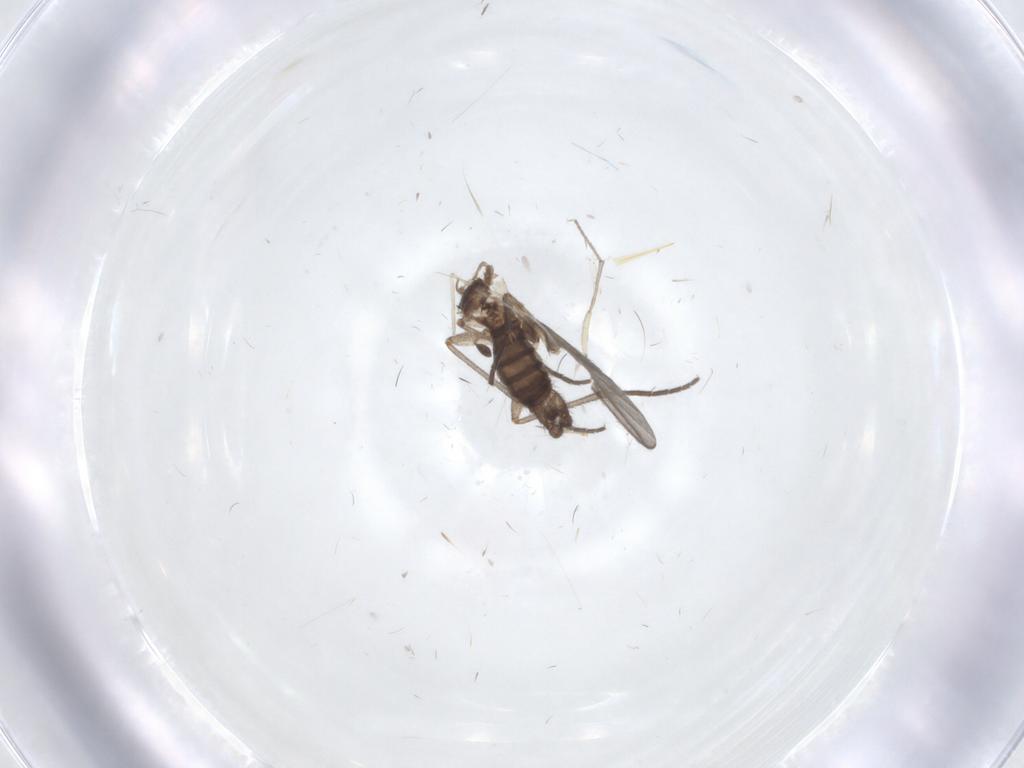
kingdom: Animalia
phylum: Arthropoda
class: Insecta
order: Diptera
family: Chironomidae
